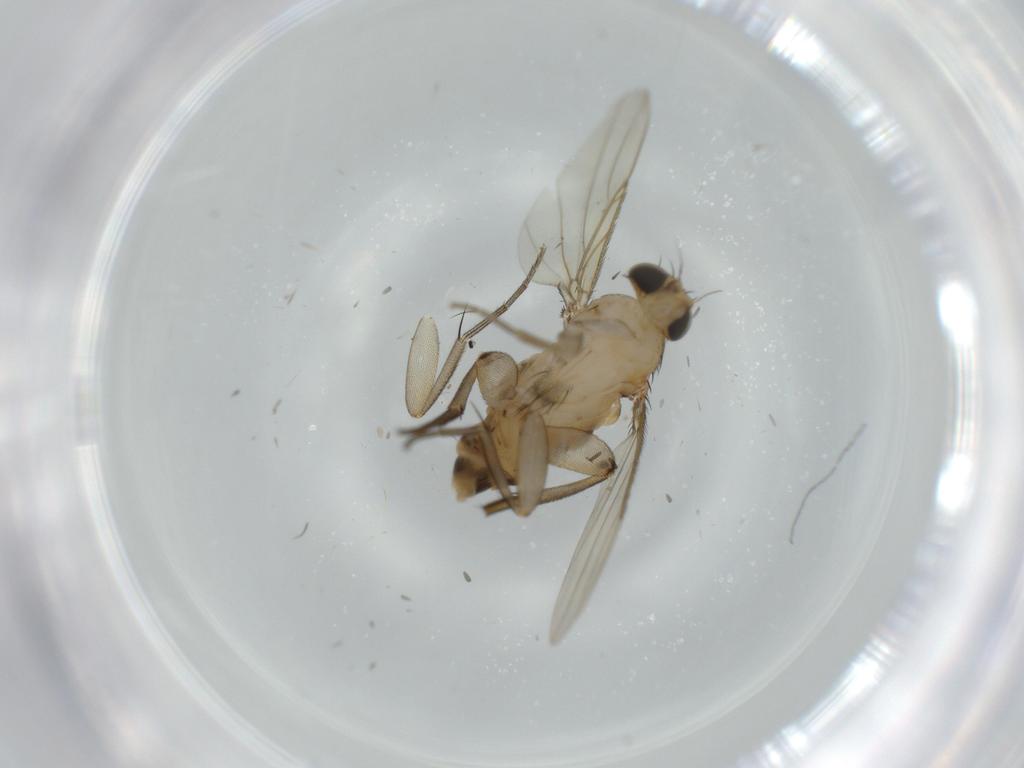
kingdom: Animalia
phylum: Arthropoda
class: Insecta
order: Diptera
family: Phoridae
